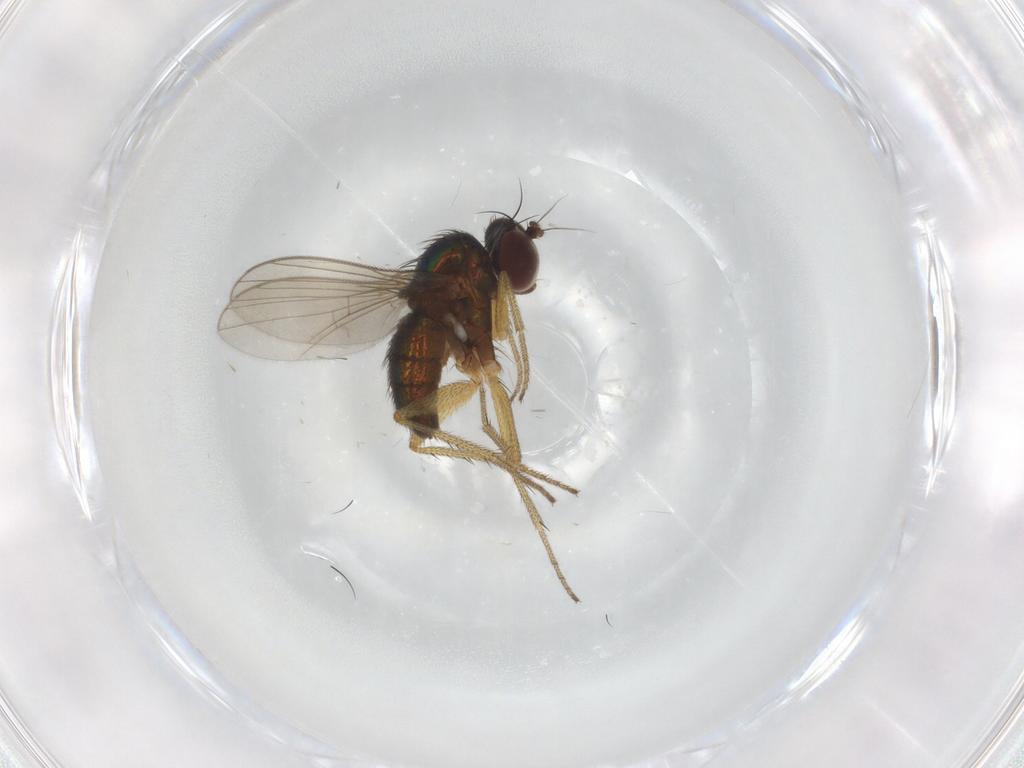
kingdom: Animalia
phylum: Arthropoda
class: Insecta
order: Diptera
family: Dolichopodidae
